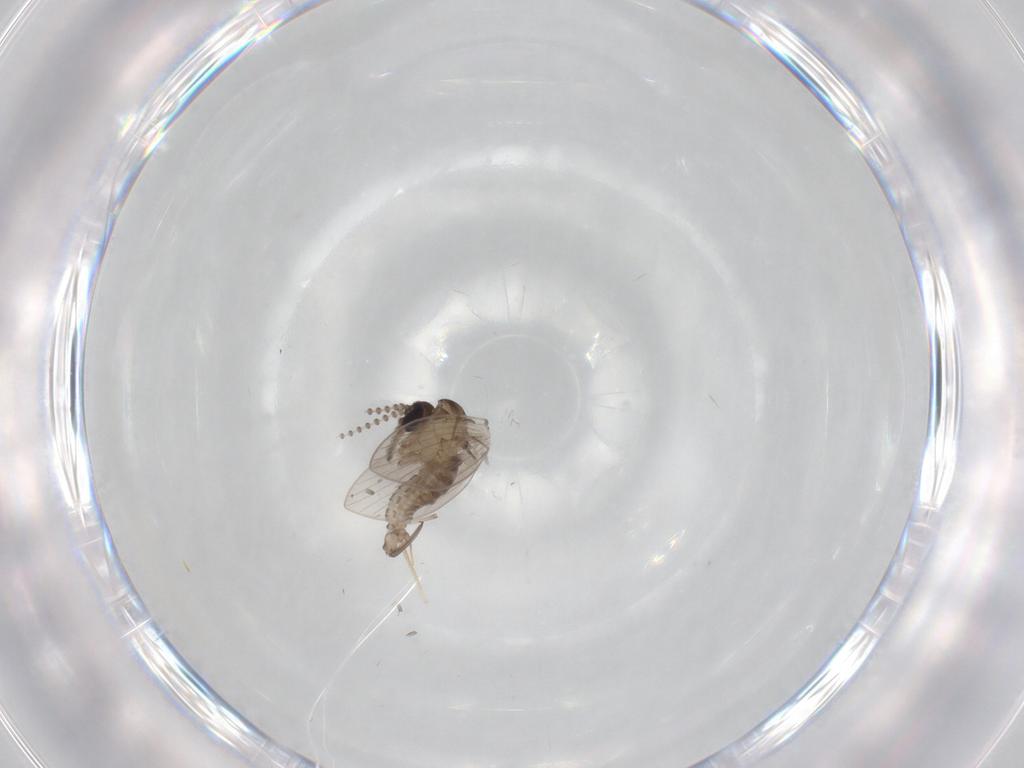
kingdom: Animalia
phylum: Arthropoda
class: Insecta
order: Diptera
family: Psychodidae
